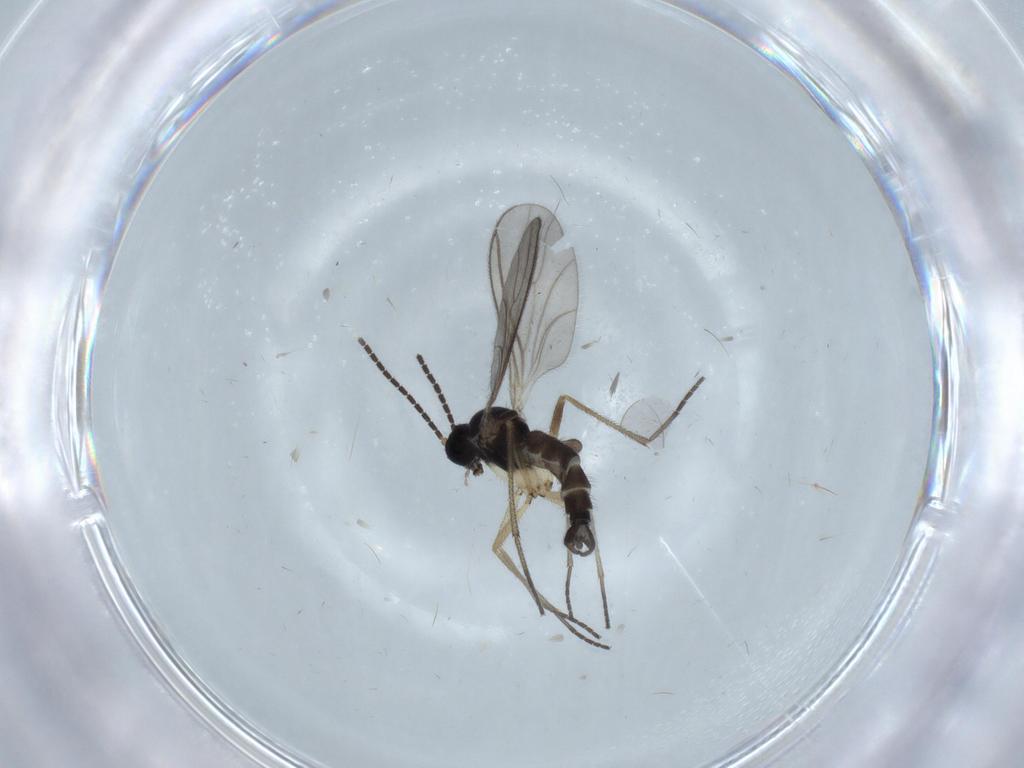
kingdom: Animalia
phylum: Arthropoda
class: Insecta
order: Diptera
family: Sciaridae
